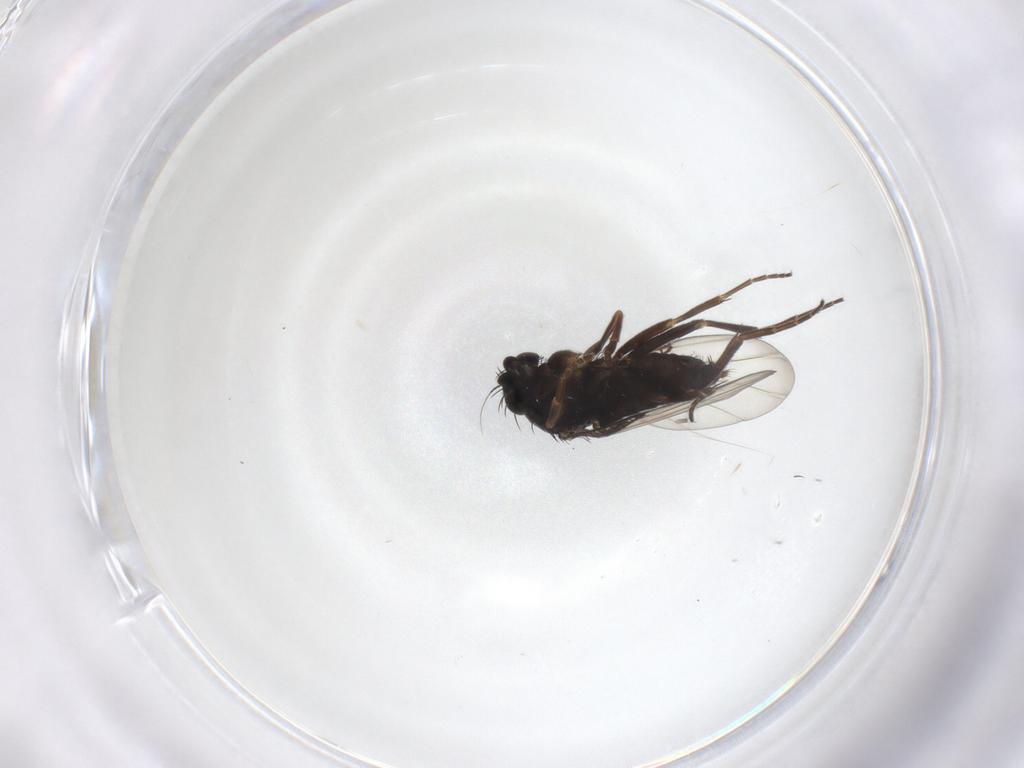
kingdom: Animalia
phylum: Arthropoda
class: Insecta
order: Diptera
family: Phoridae
